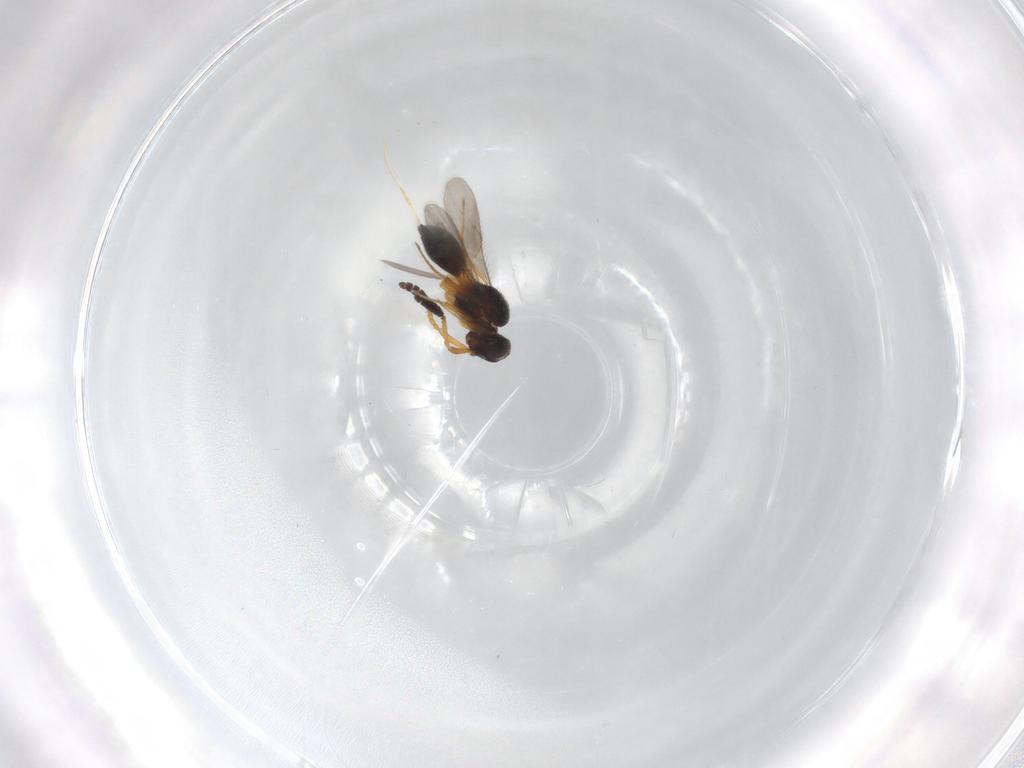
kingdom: Animalia
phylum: Arthropoda
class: Insecta
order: Hymenoptera
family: Scelionidae
